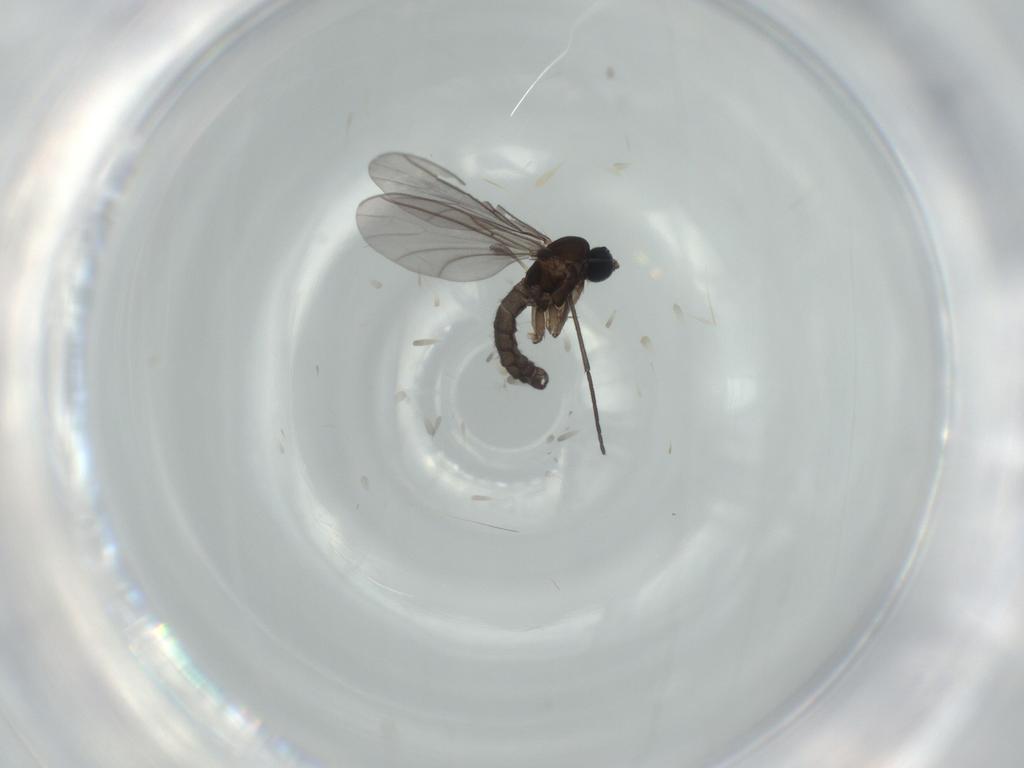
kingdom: Animalia
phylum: Arthropoda
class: Insecta
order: Diptera
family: Sciaridae
